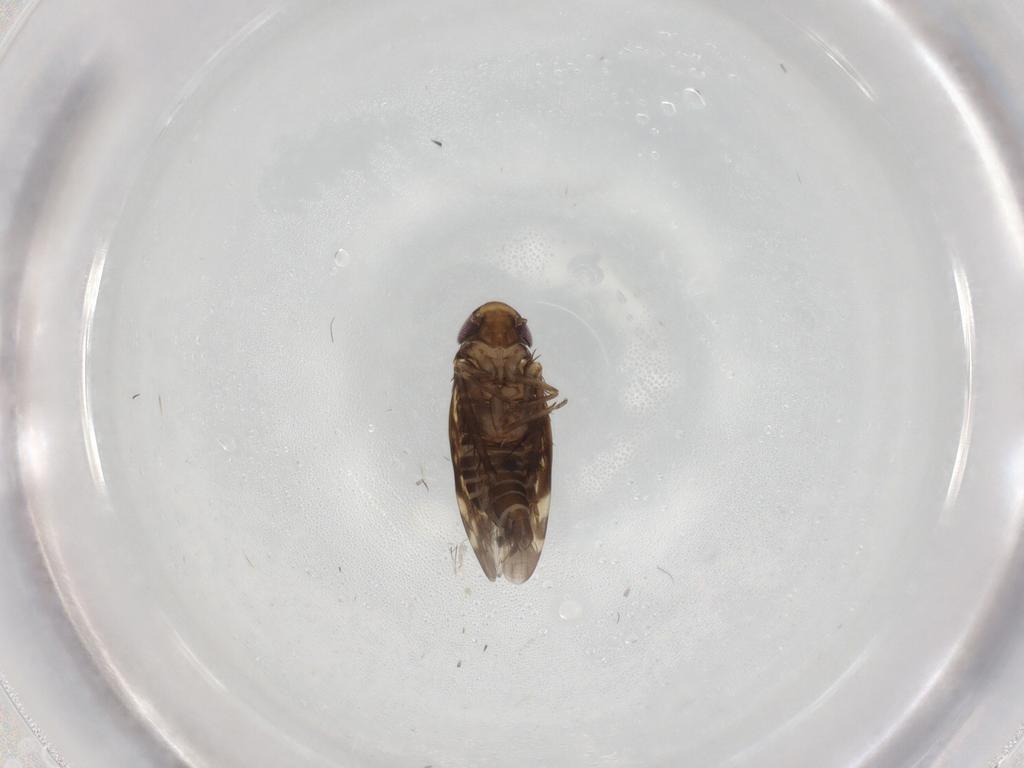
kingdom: Animalia
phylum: Arthropoda
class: Insecta
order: Hemiptera
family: Cicadellidae
